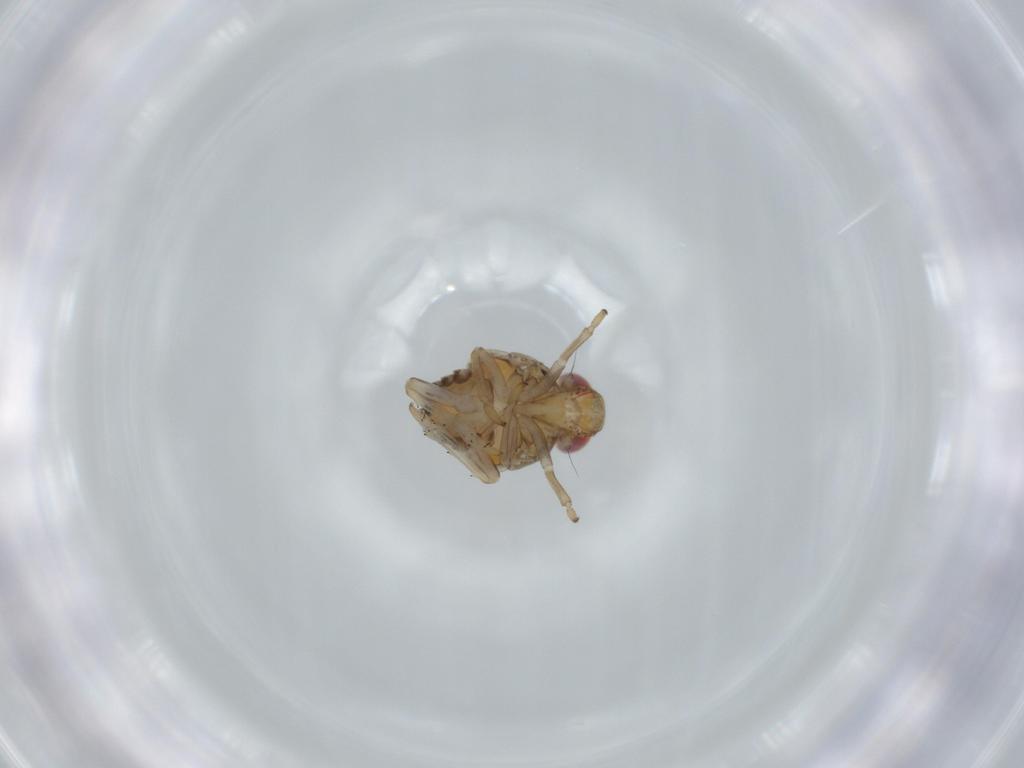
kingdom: Animalia
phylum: Arthropoda
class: Insecta
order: Hemiptera
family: Issidae
